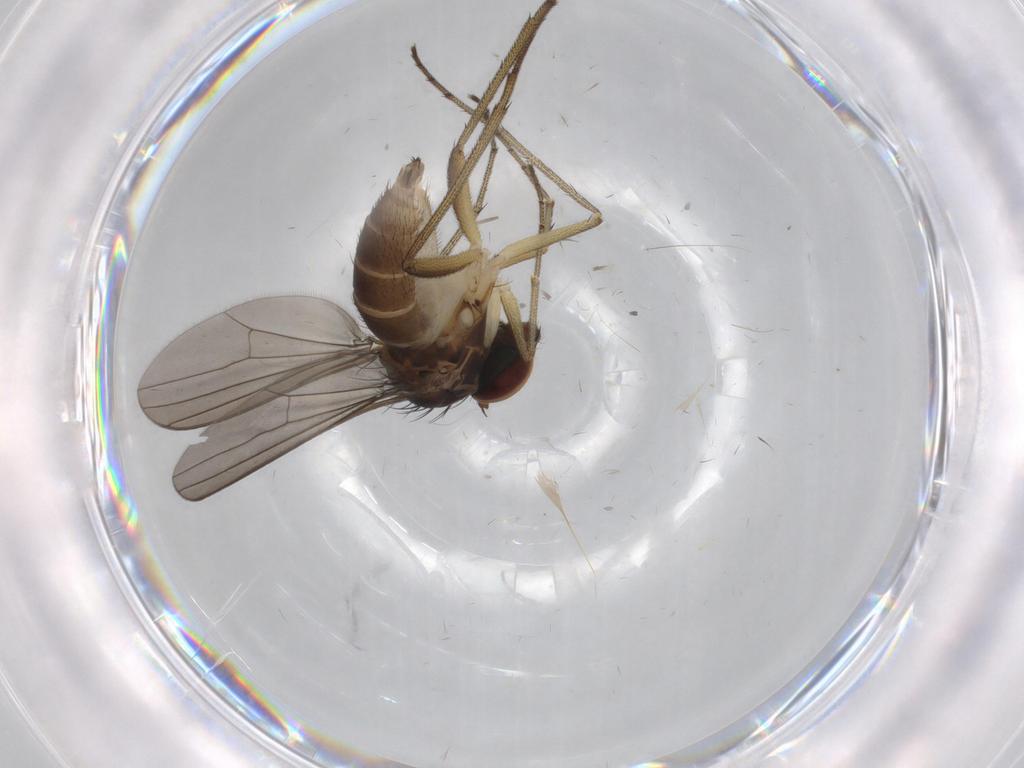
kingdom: Animalia
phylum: Arthropoda
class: Insecta
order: Diptera
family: Dolichopodidae
